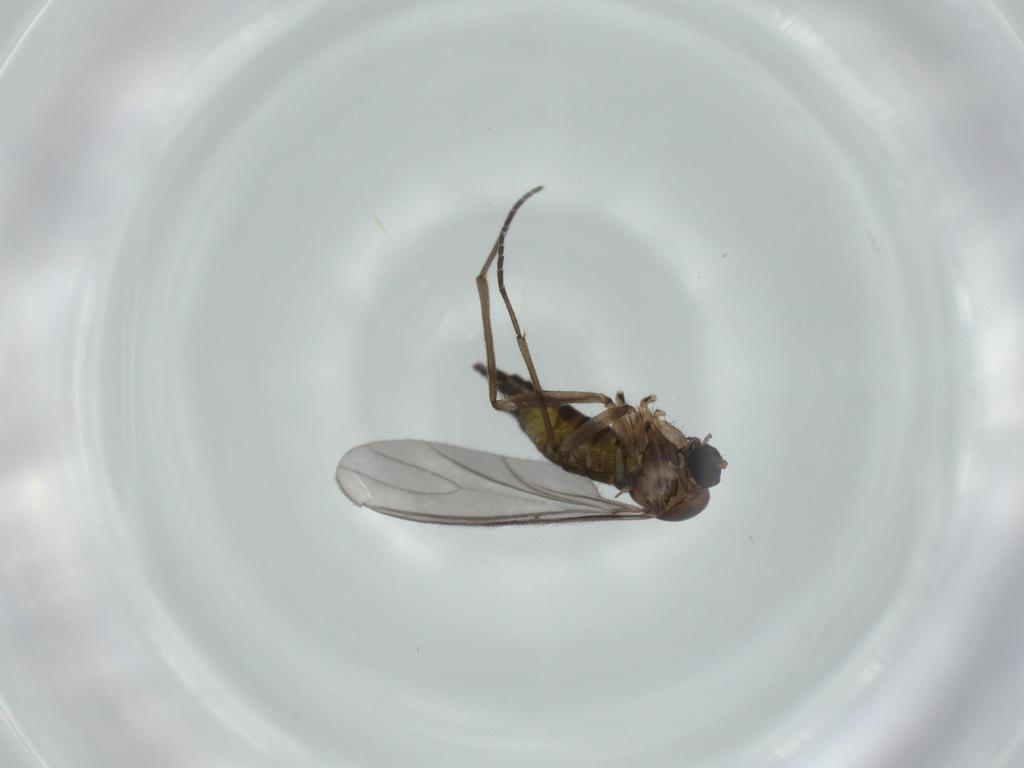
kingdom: Animalia
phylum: Arthropoda
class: Insecta
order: Diptera
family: Sciaridae
